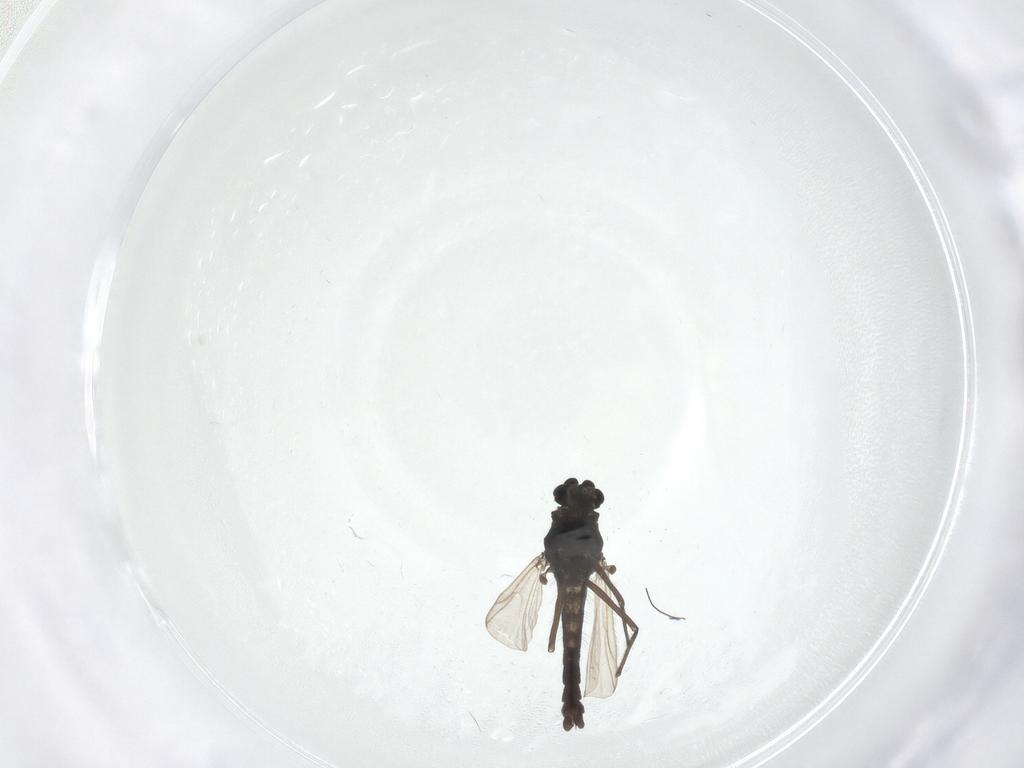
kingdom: Animalia
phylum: Arthropoda
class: Insecta
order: Diptera
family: Chironomidae
